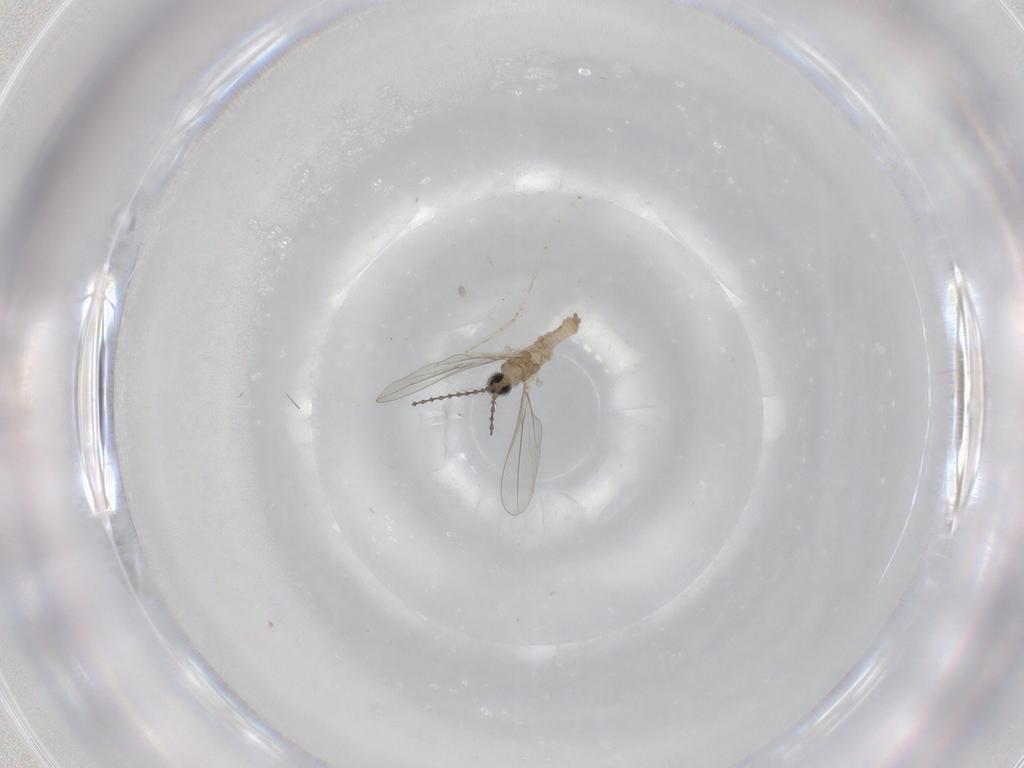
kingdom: Animalia
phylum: Arthropoda
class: Insecta
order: Diptera
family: Cecidomyiidae
